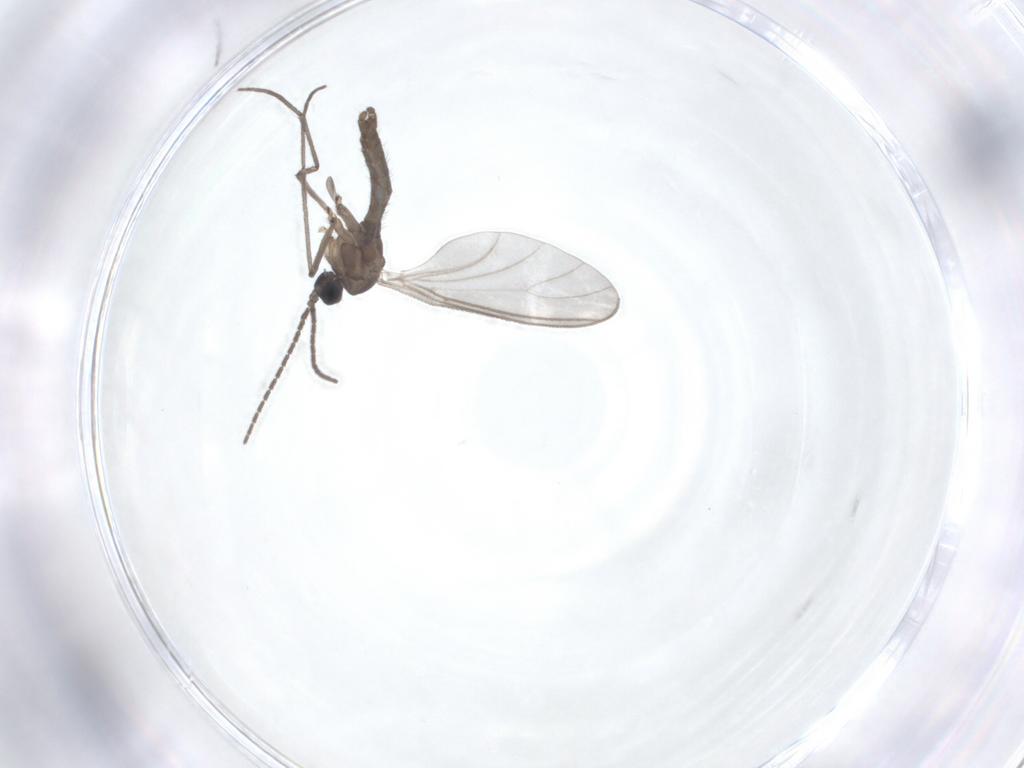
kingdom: Animalia
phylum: Arthropoda
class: Insecta
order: Diptera
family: Sciaridae
